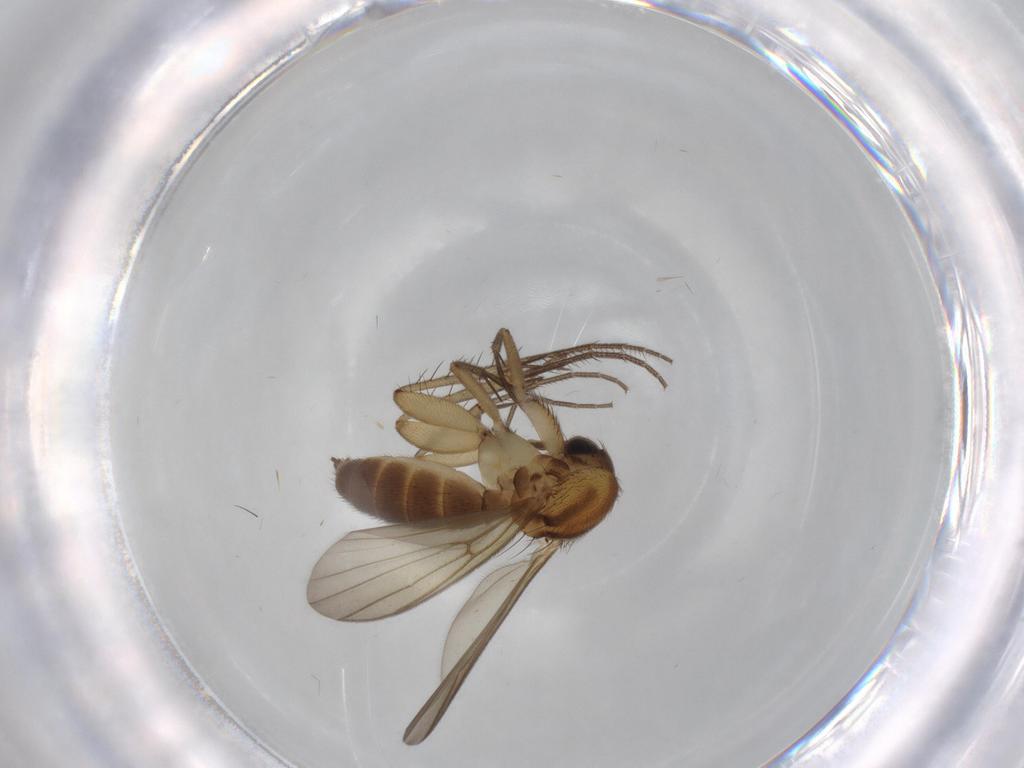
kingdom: Animalia
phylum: Arthropoda
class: Insecta
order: Diptera
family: Mycetophilidae
